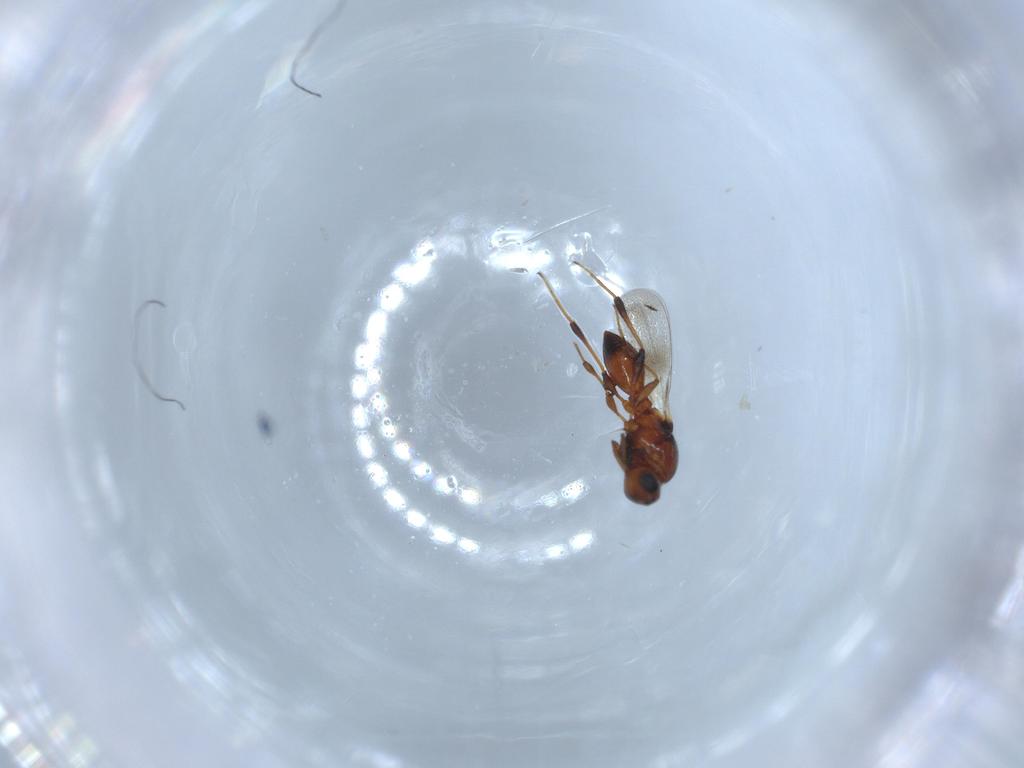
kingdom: Animalia
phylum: Arthropoda
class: Insecta
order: Hymenoptera
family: Platygastridae
